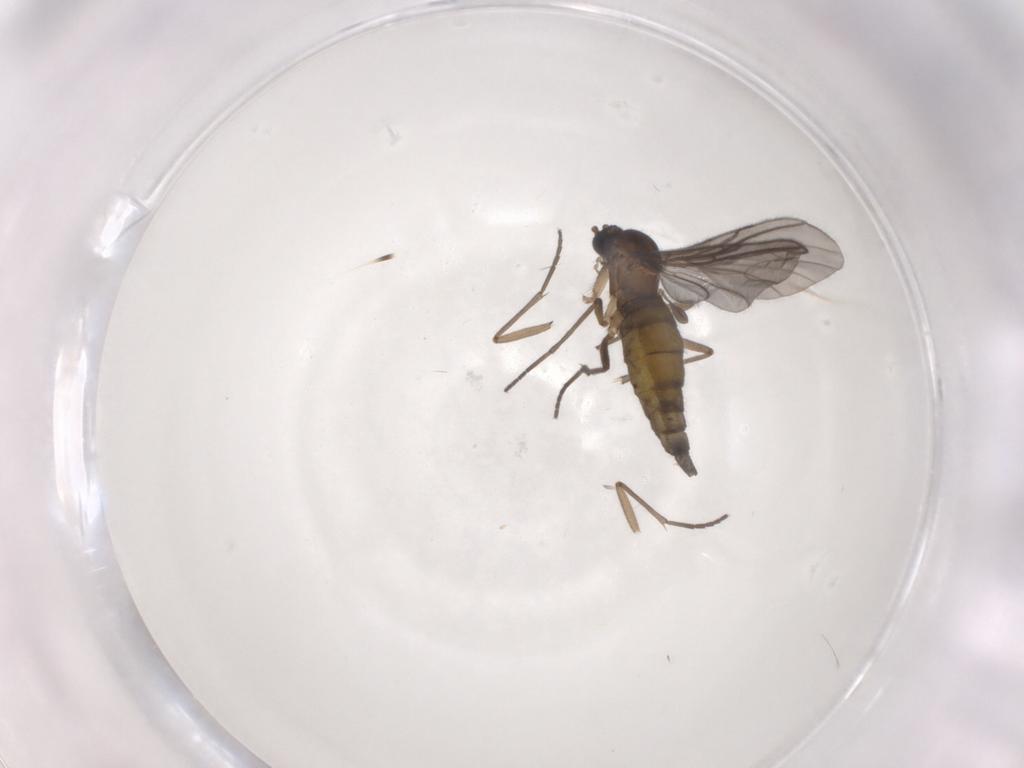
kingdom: Animalia
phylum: Arthropoda
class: Insecta
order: Diptera
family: Sciaridae
